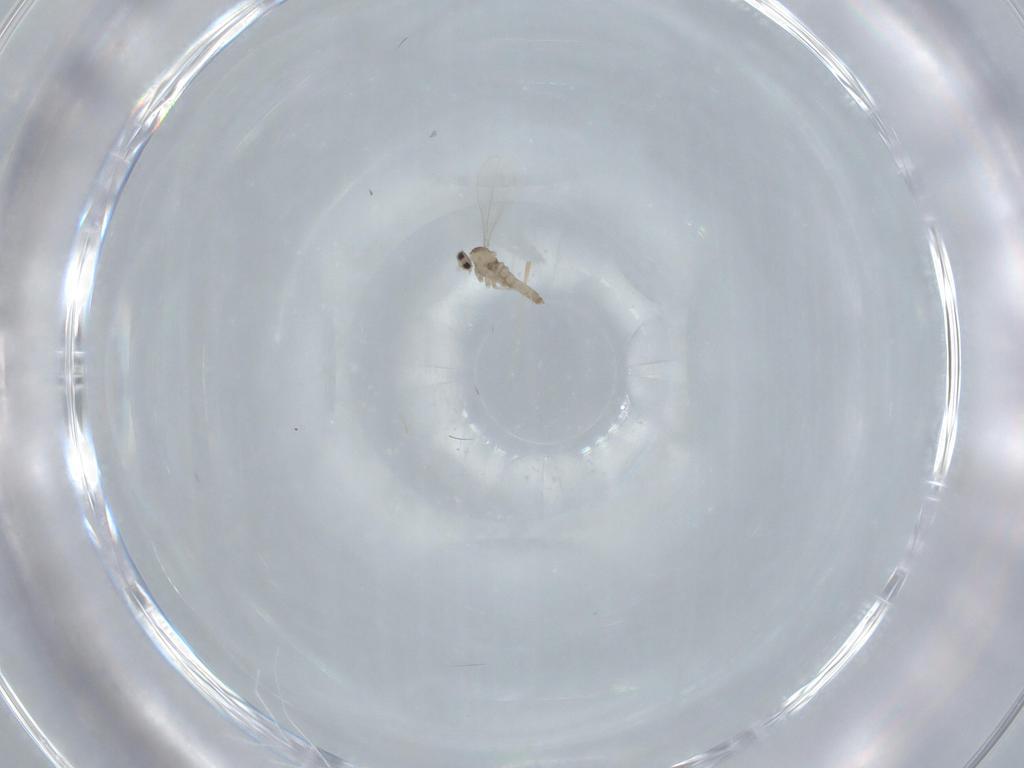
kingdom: Animalia
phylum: Arthropoda
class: Insecta
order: Diptera
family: Cecidomyiidae
